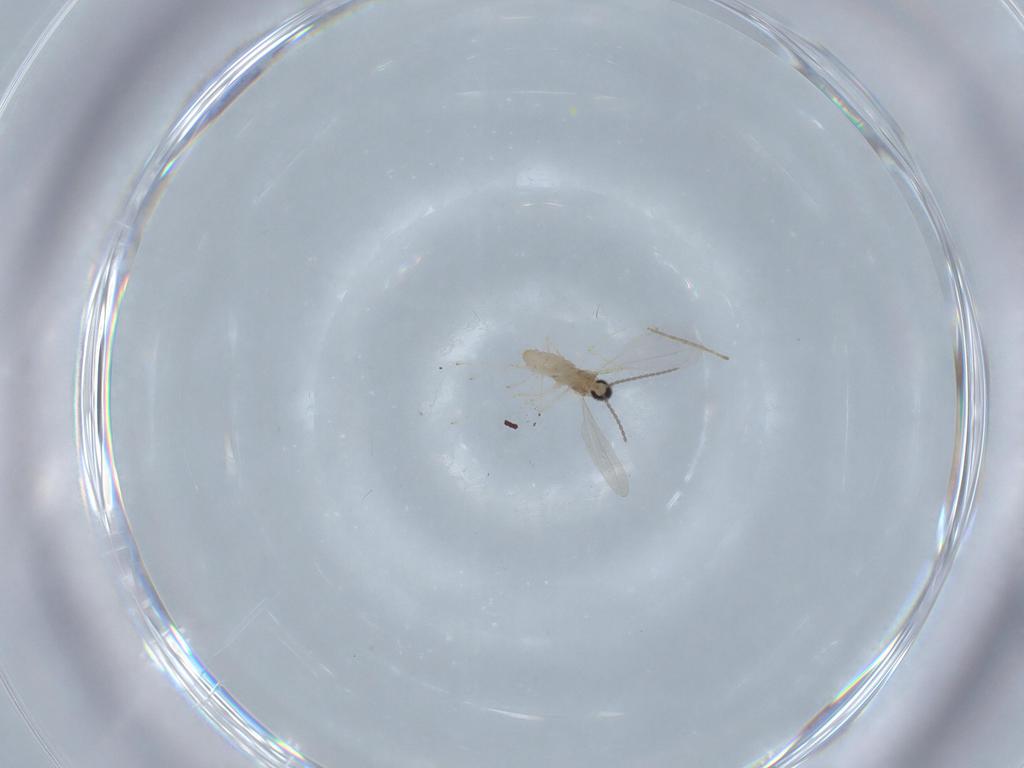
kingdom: Animalia
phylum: Arthropoda
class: Insecta
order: Diptera
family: Chironomidae
